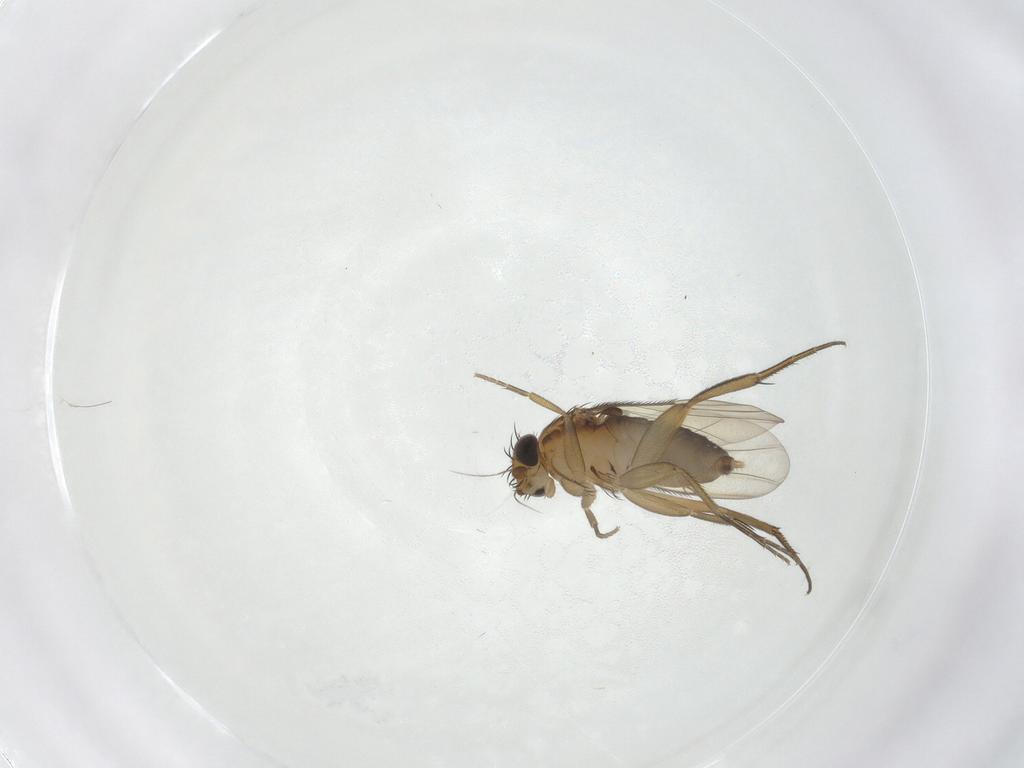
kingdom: Animalia
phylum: Arthropoda
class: Insecta
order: Diptera
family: Phoridae
